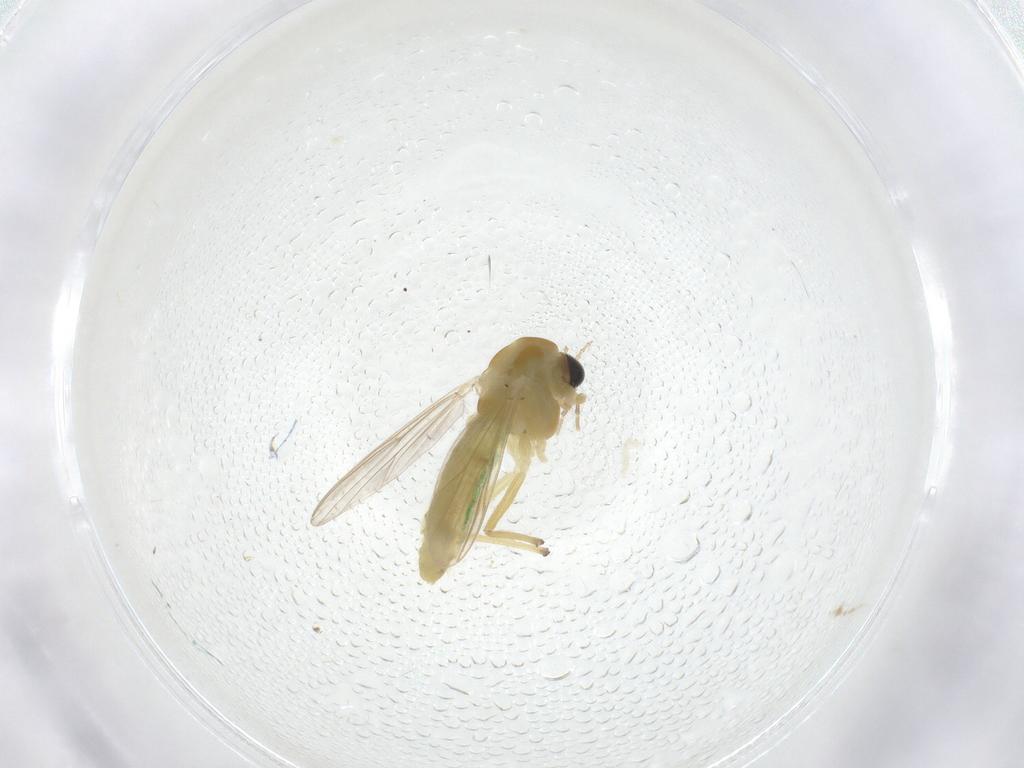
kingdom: Animalia
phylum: Arthropoda
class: Insecta
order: Diptera
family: Chironomidae
